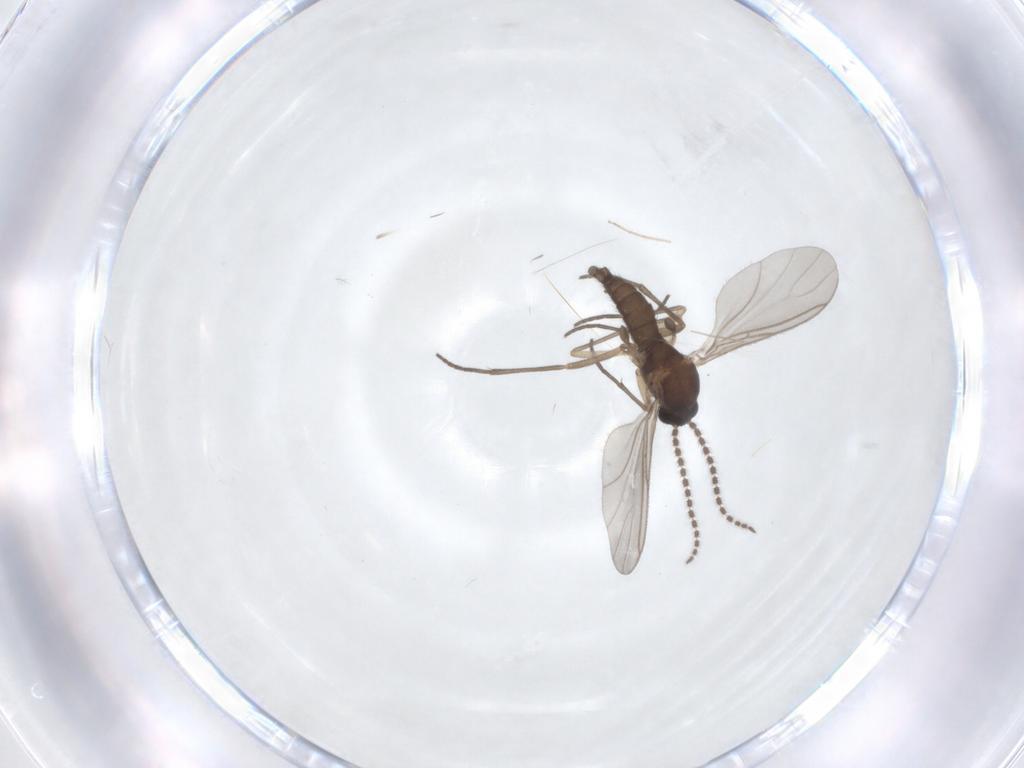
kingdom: Animalia
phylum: Arthropoda
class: Insecta
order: Diptera
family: Sciaridae
